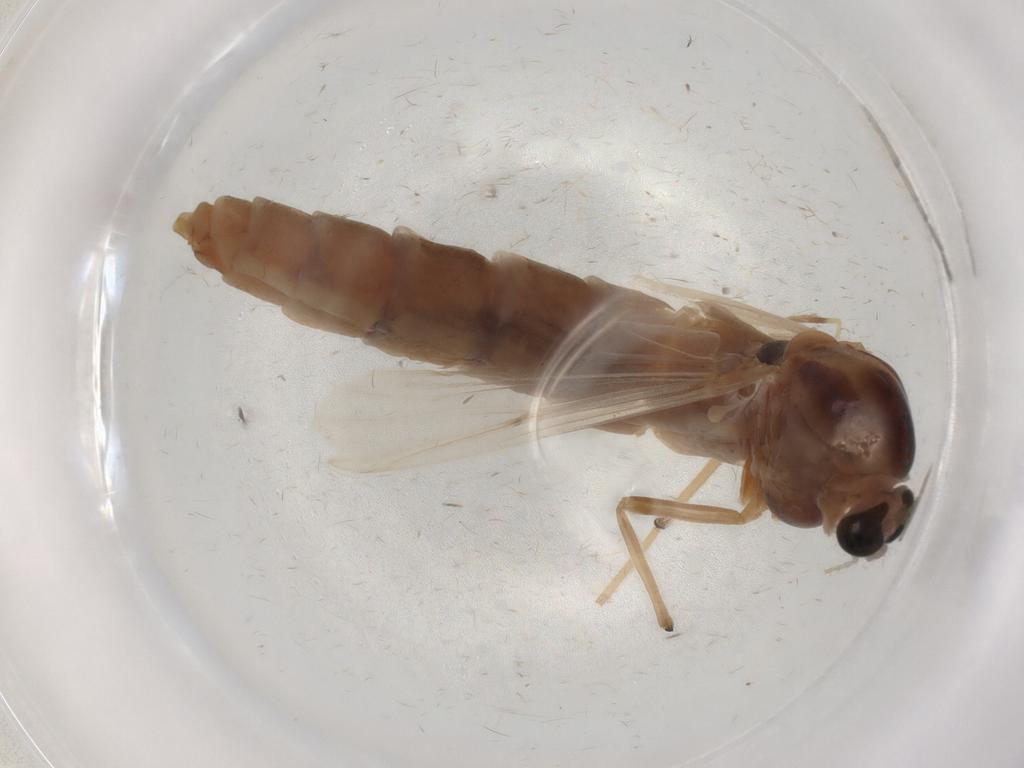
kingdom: Animalia
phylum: Arthropoda
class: Insecta
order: Diptera
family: Chironomidae
